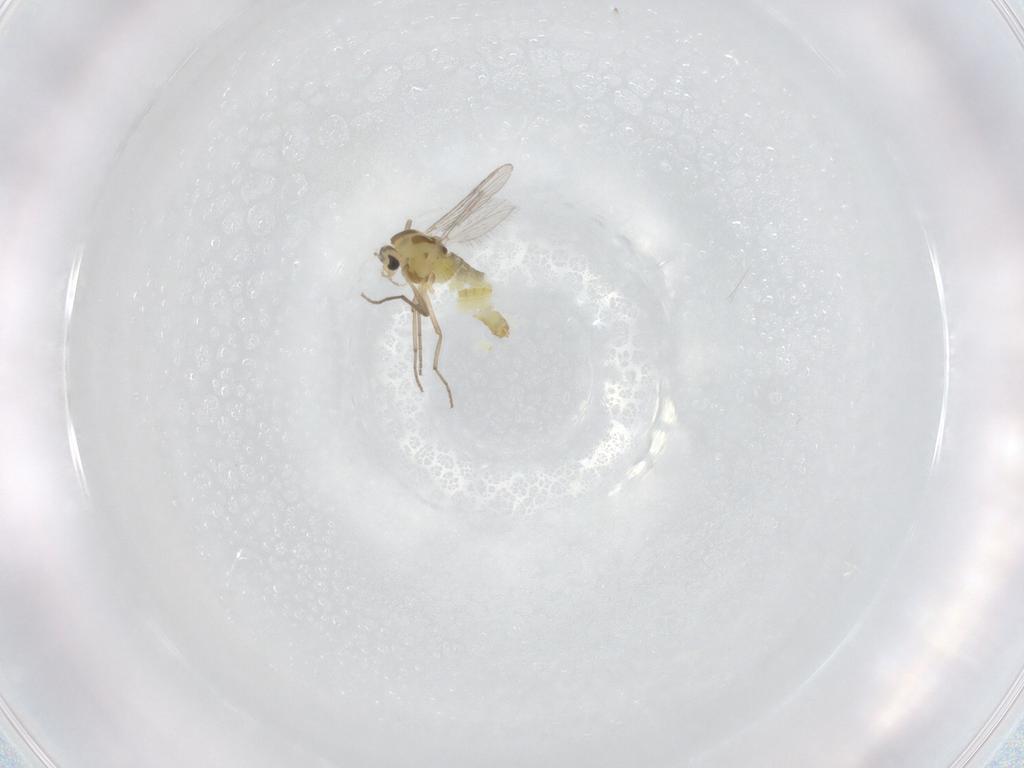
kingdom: Animalia
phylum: Arthropoda
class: Insecta
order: Diptera
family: Chironomidae
